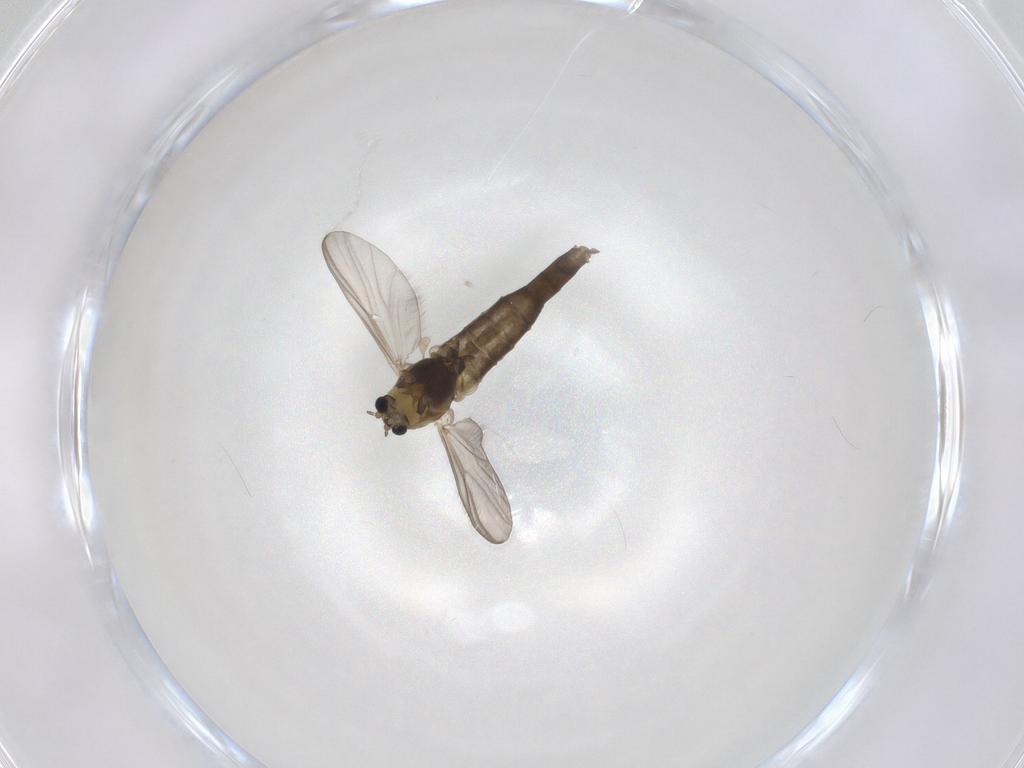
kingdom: Animalia
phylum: Arthropoda
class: Insecta
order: Diptera
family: Chironomidae
